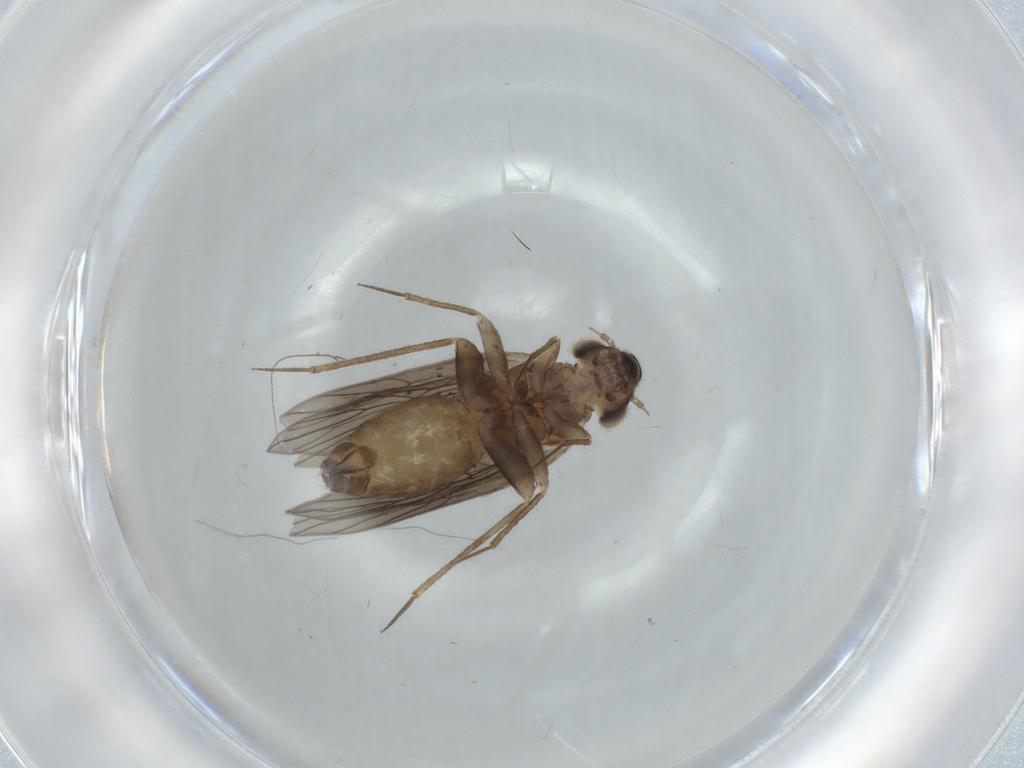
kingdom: Animalia
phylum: Arthropoda
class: Insecta
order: Psocodea
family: Lepidopsocidae
